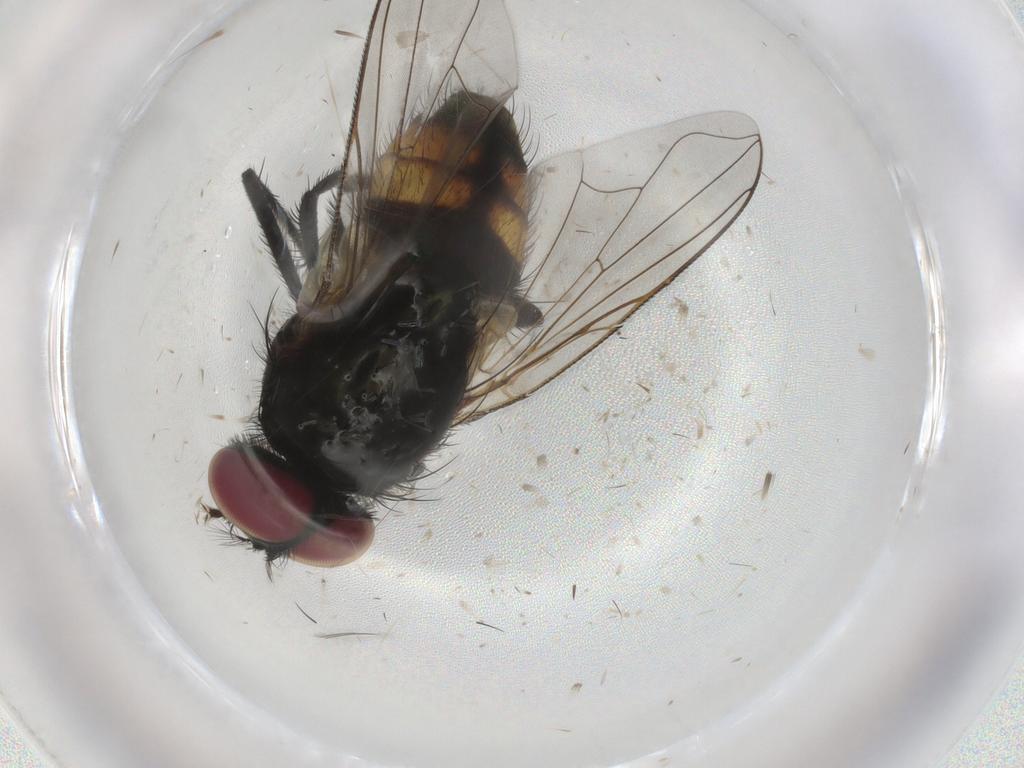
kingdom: Animalia
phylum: Arthropoda
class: Insecta
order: Diptera
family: Muscidae
